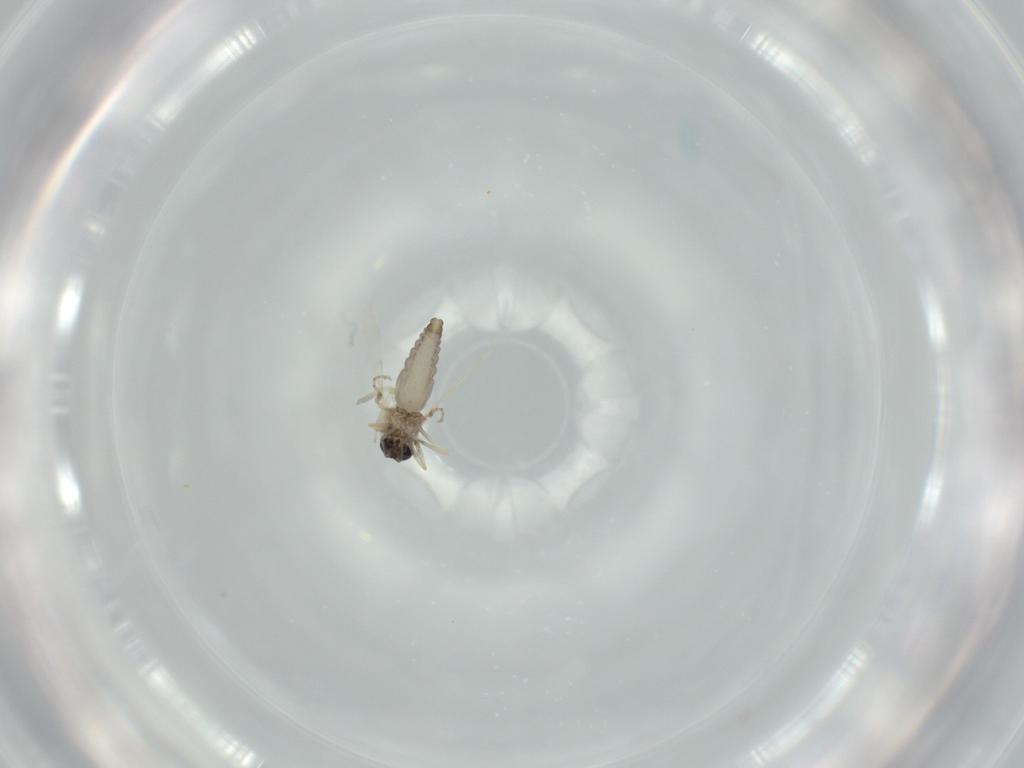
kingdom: Animalia
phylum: Arthropoda
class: Insecta
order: Diptera
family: Ceratopogonidae
